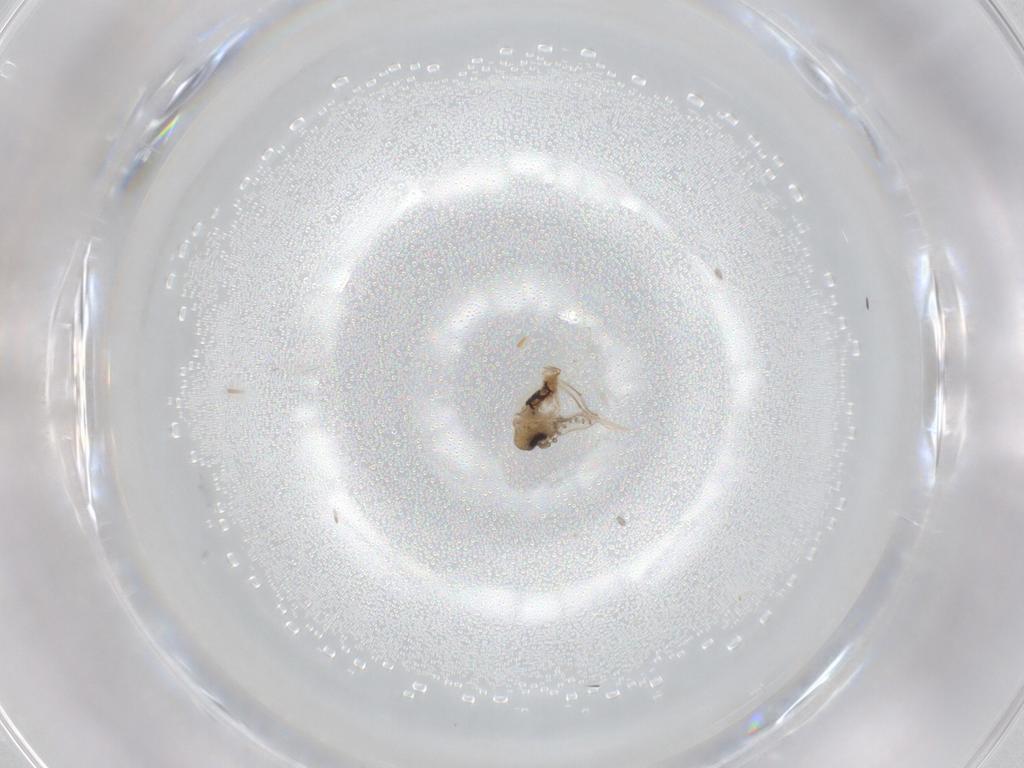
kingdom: Animalia
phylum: Arthropoda
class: Insecta
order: Diptera
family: Psychodidae
